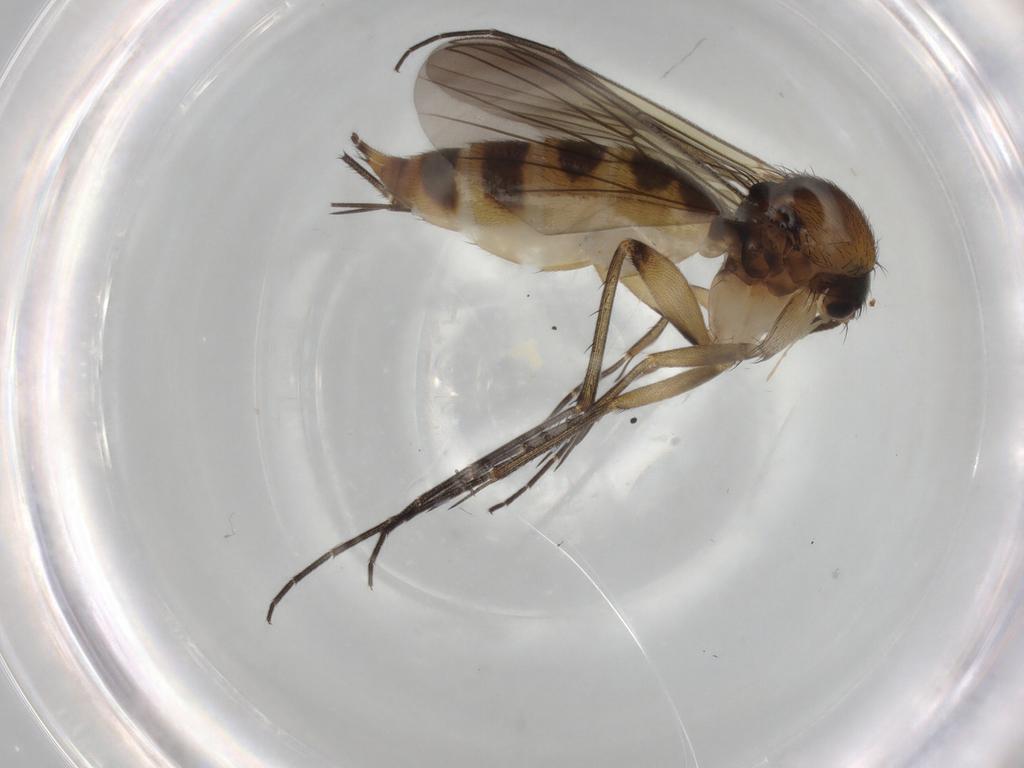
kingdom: Animalia
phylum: Arthropoda
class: Insecta
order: Diptera
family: Mycetophilidae
